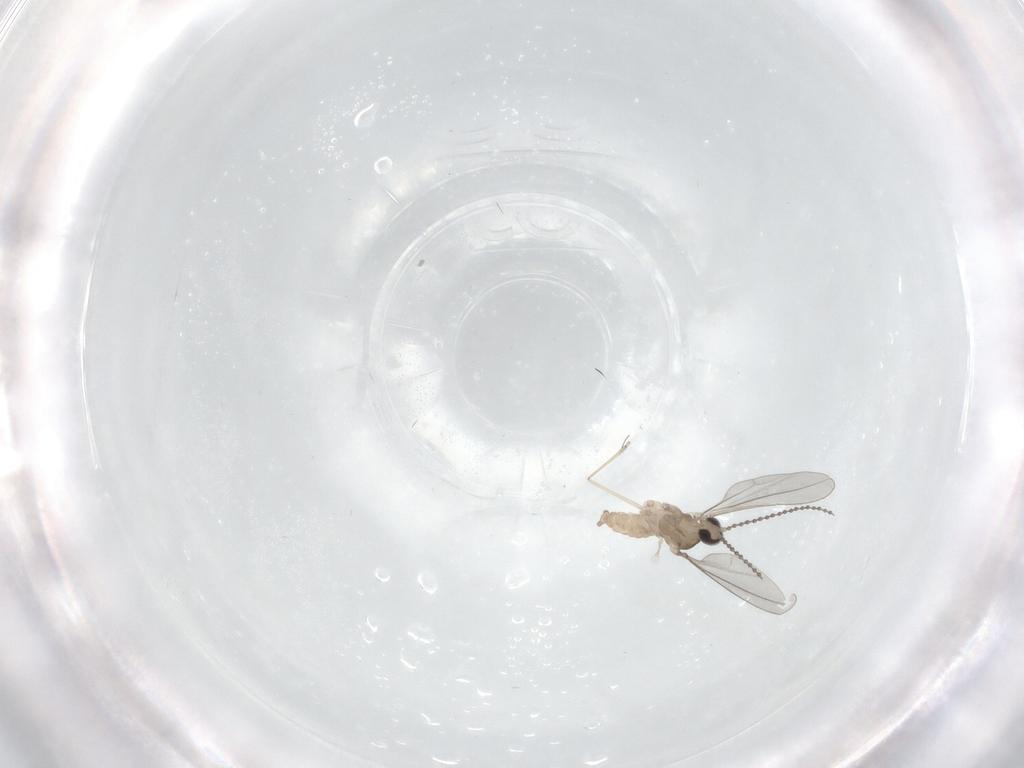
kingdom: Animalia
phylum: Arthropoda
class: Insecta
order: Diptera
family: Cecidomyiidae
